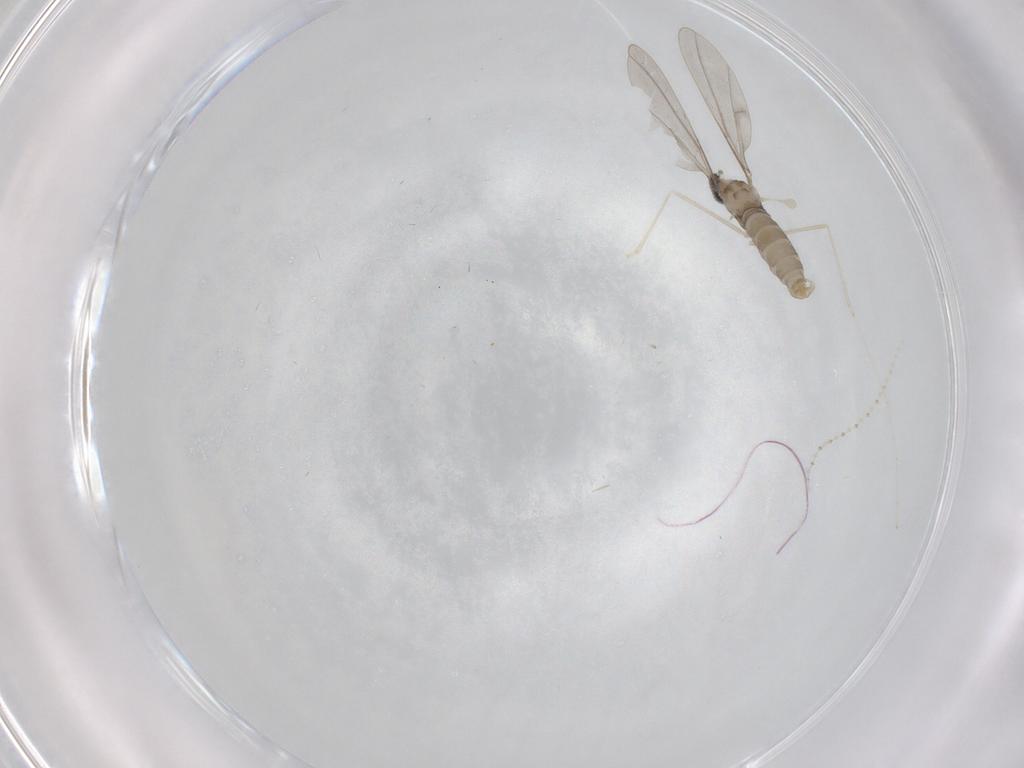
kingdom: Animalia
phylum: Arthropoda
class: Insecta
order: Diptera
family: Cecidomyiidae
